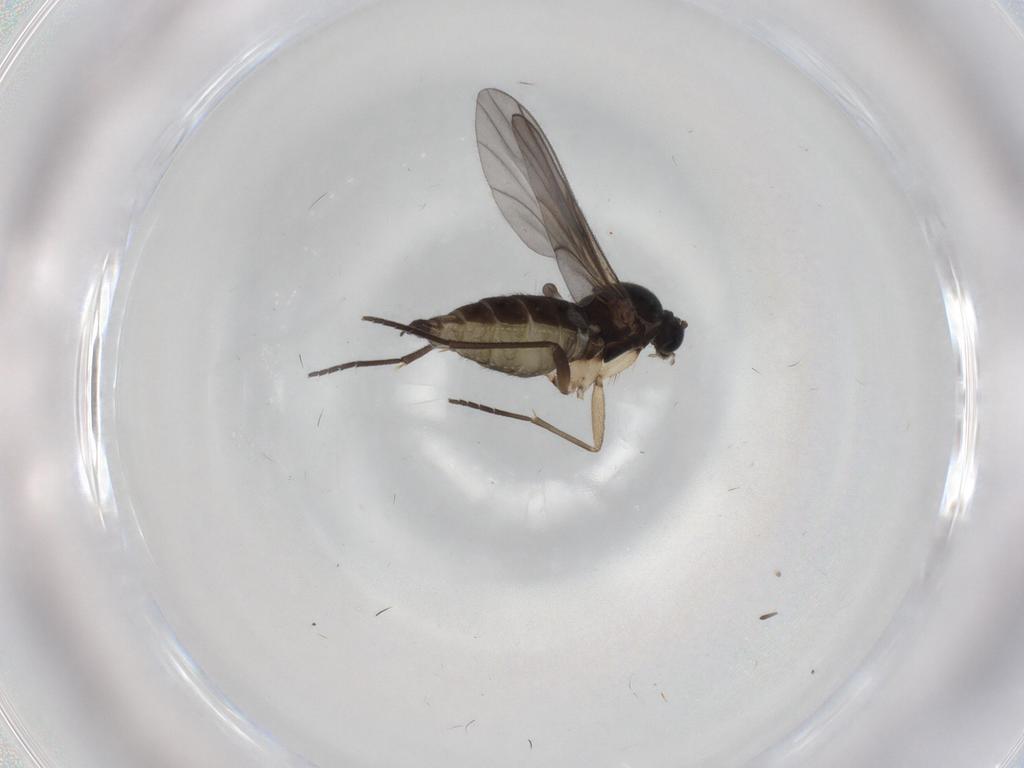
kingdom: Animalia
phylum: Arthropoda
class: Insecta
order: Diptera
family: Sciaridae
